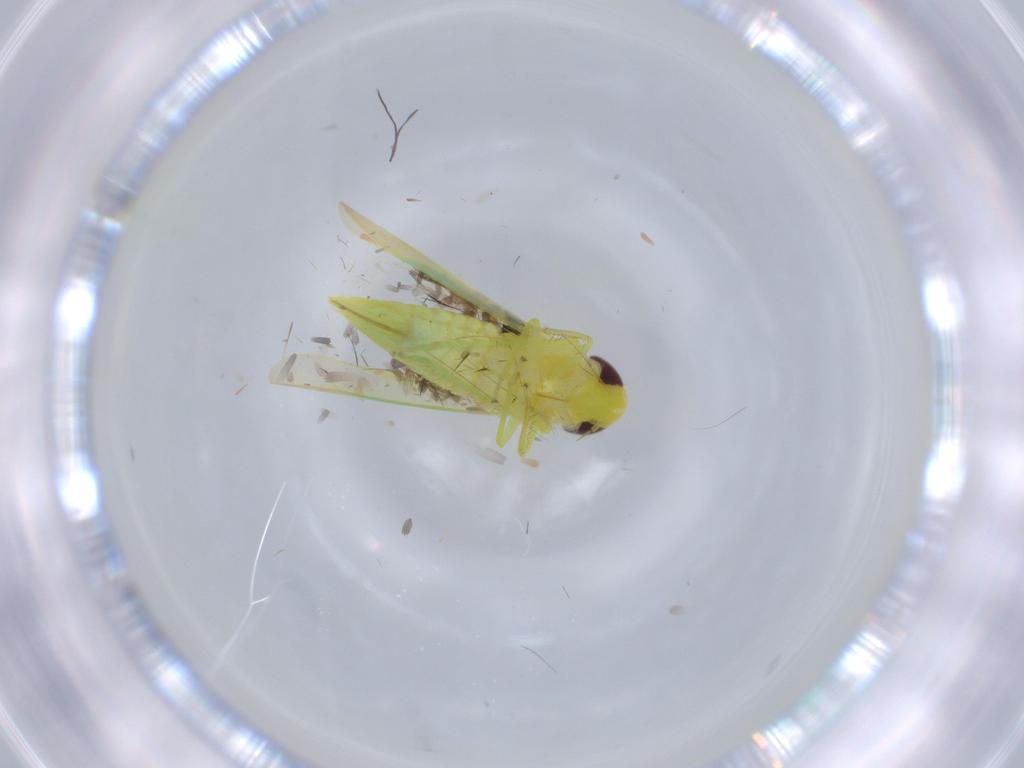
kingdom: Animalia
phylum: Arthropoda
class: Insecta
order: Hemiptera
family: Cicadellidae
